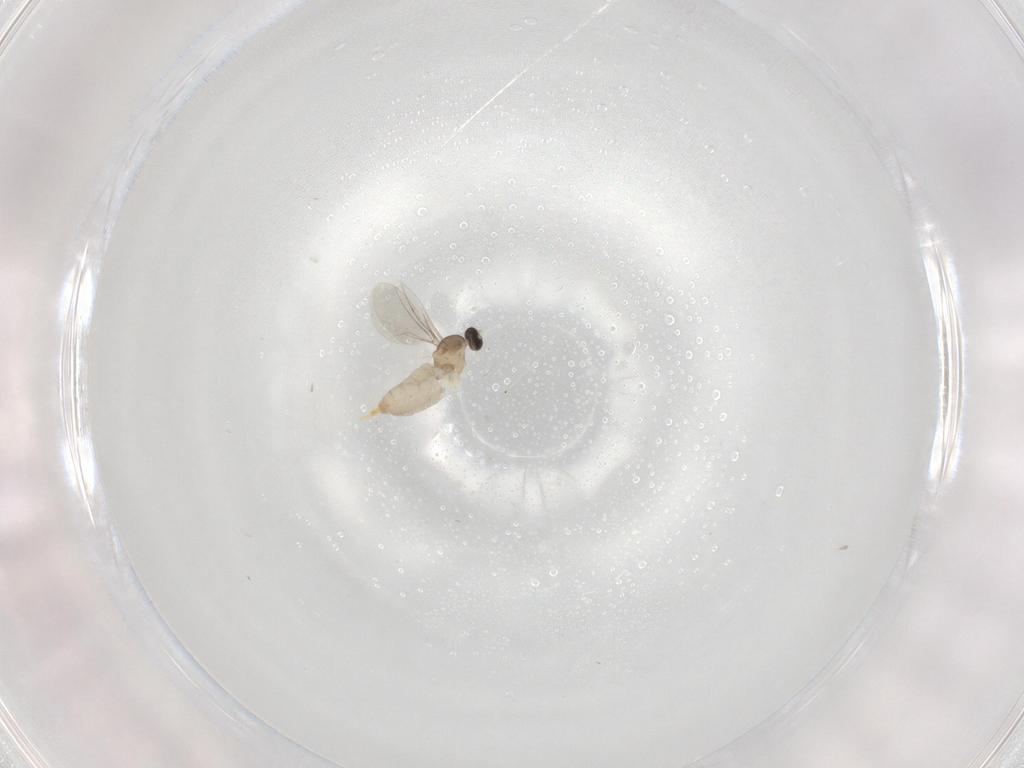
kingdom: Animalia
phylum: Arthropoda
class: Insecta
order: Diptera
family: Cecidomyiidae
